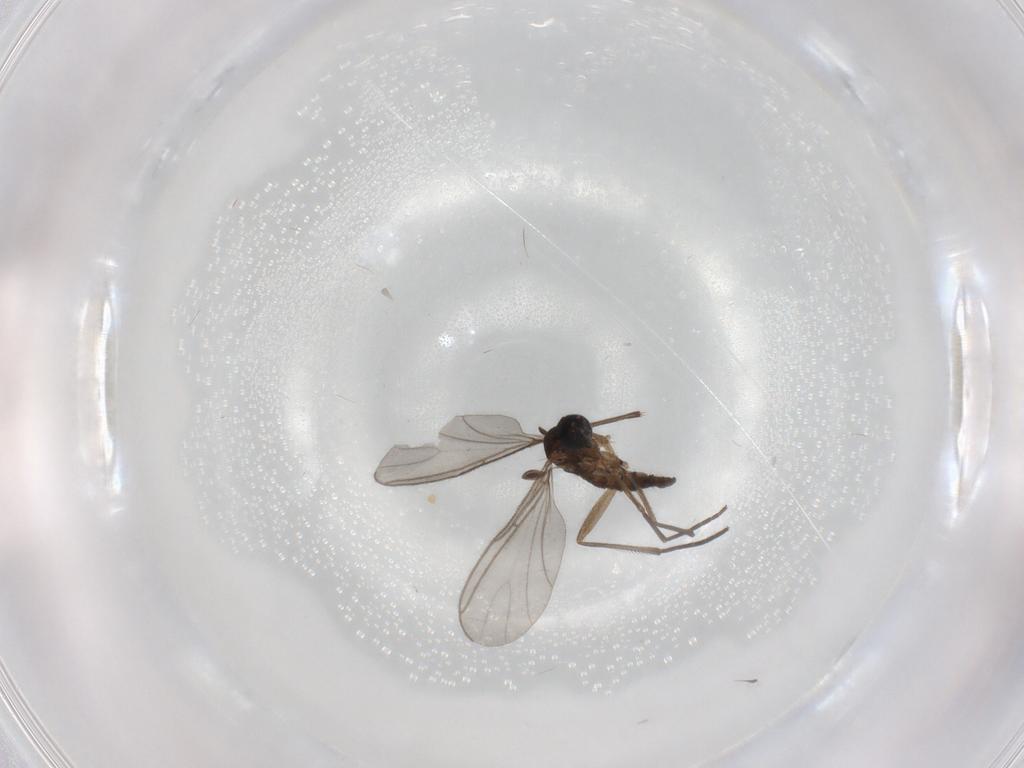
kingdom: Animalia
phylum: Arthropoda
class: Insecta
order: Diptera
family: Sciaridae
